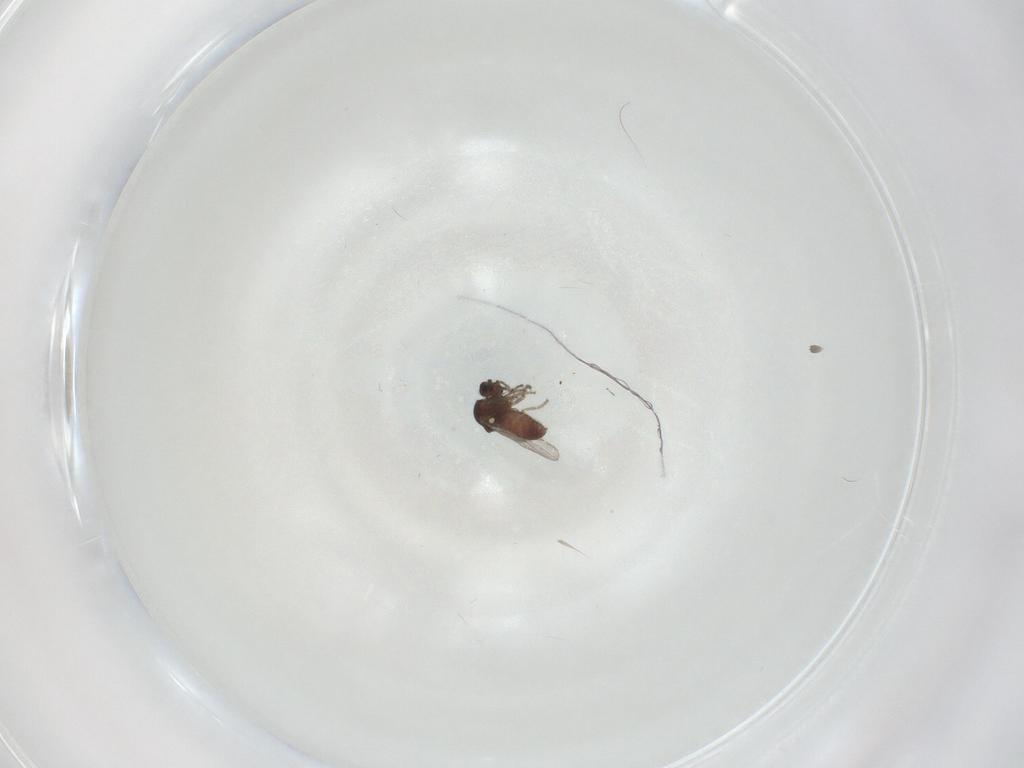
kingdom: Animalia
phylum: Arthropoda
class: Insecta
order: Diptera
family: Ceratopogonidae
